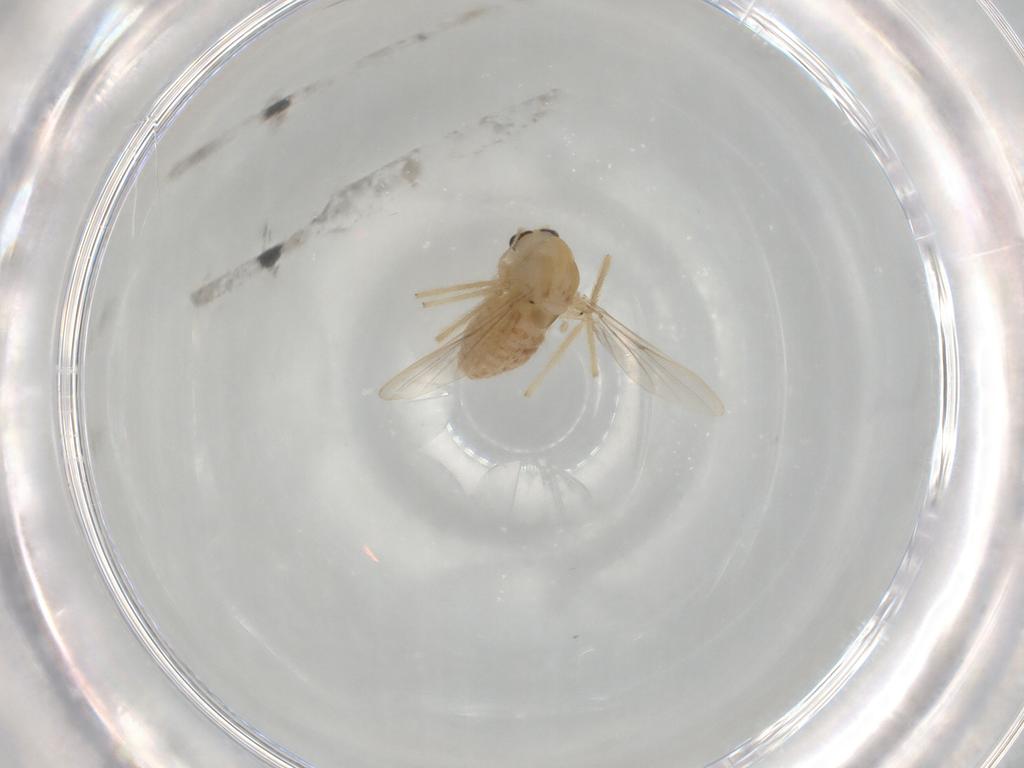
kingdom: Animalia
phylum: Arthropoda
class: Insecta
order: Diptera
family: Chironomidae
